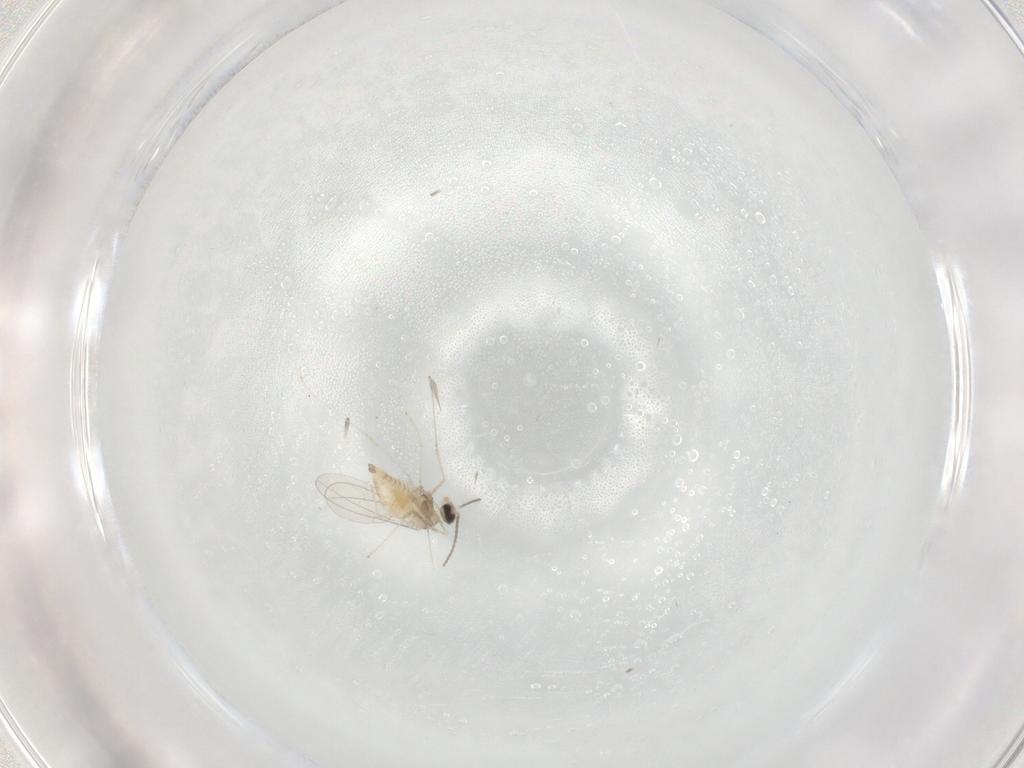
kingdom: Animalia
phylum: Arthropoda
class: Insecta
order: Diptera
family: Cecidomyiidae
